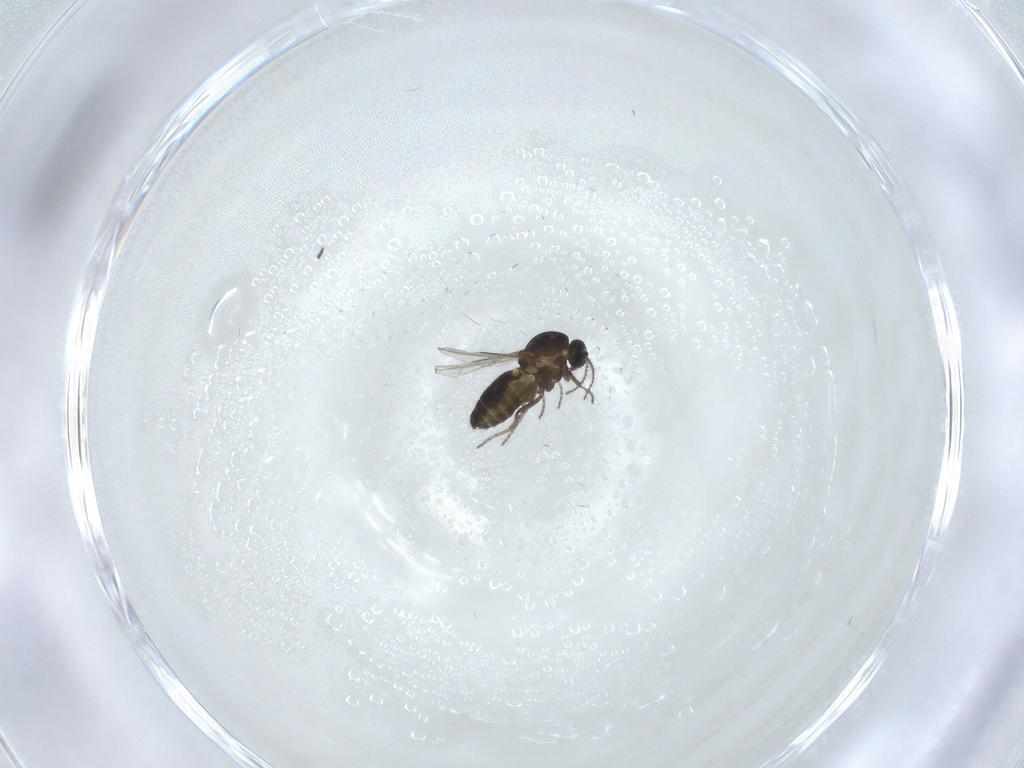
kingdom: Animalia
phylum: Arthropoda
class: Insecta
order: Diptera
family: Ceratopogonidae
